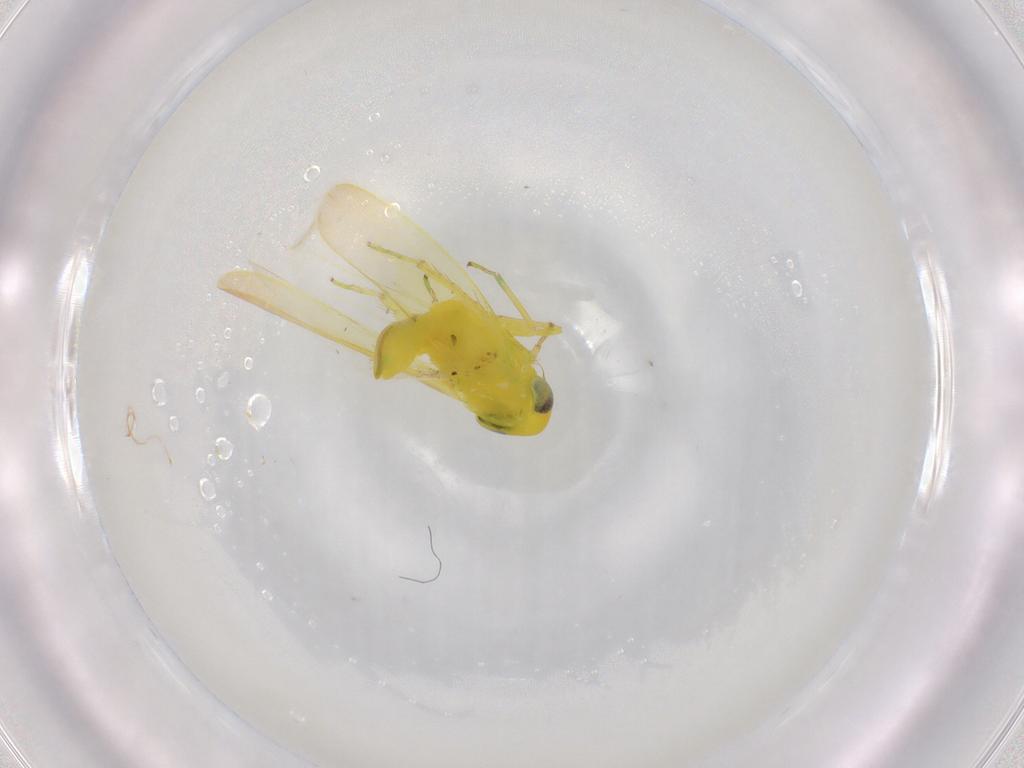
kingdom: Animalia
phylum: Arthropoda
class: Insecta
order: Hemiptera
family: Cicadellidae
